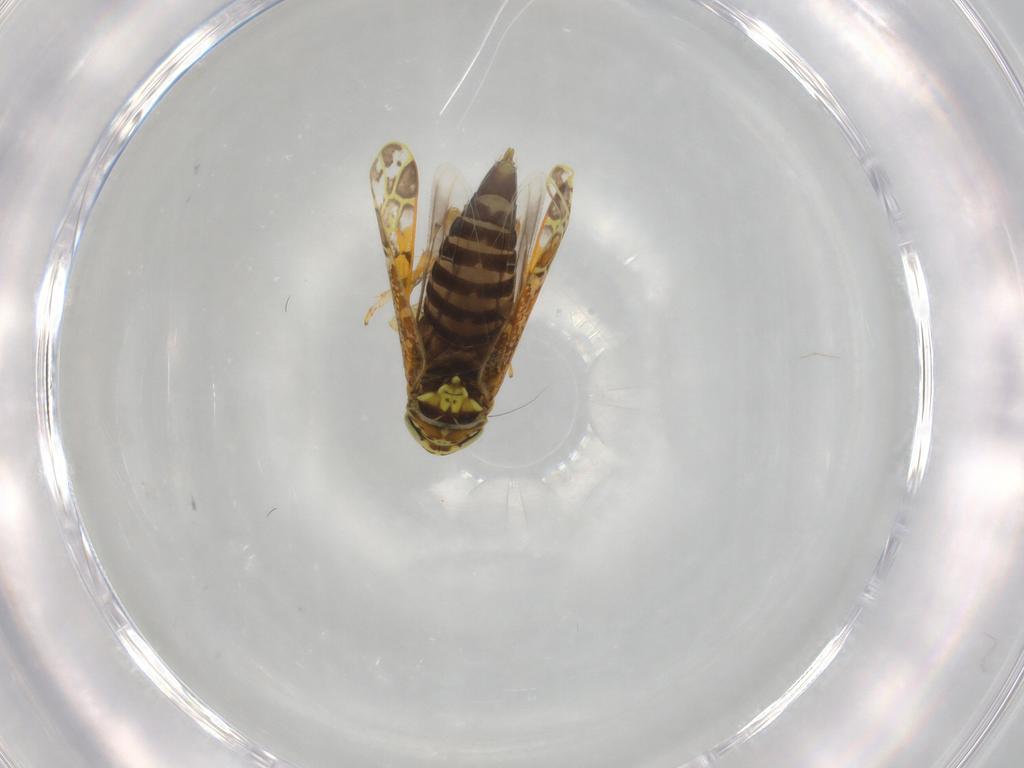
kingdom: Animalia
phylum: Arthropoda
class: Insecta
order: Hemiptera
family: Cicadellidae
